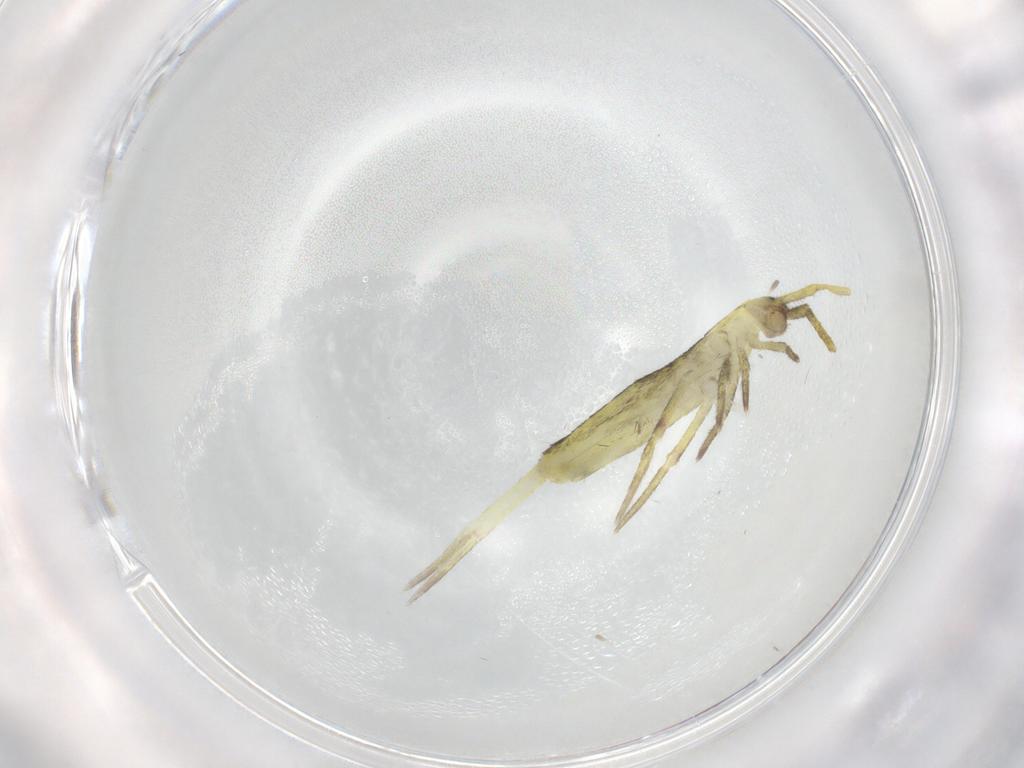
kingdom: Animalia
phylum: Arthropoda
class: Collembola
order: Entomobryomorpha
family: Entomobryidae
